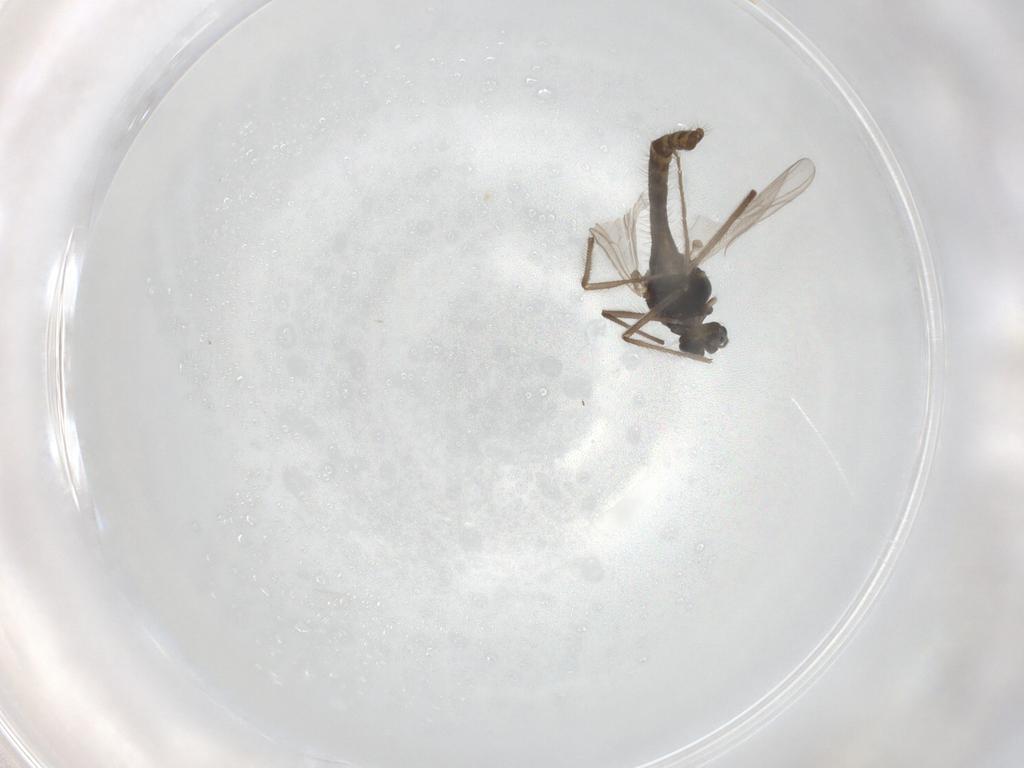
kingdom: Animalia
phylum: Arthropoda
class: Insecta
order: Diptera
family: Chironomidae
